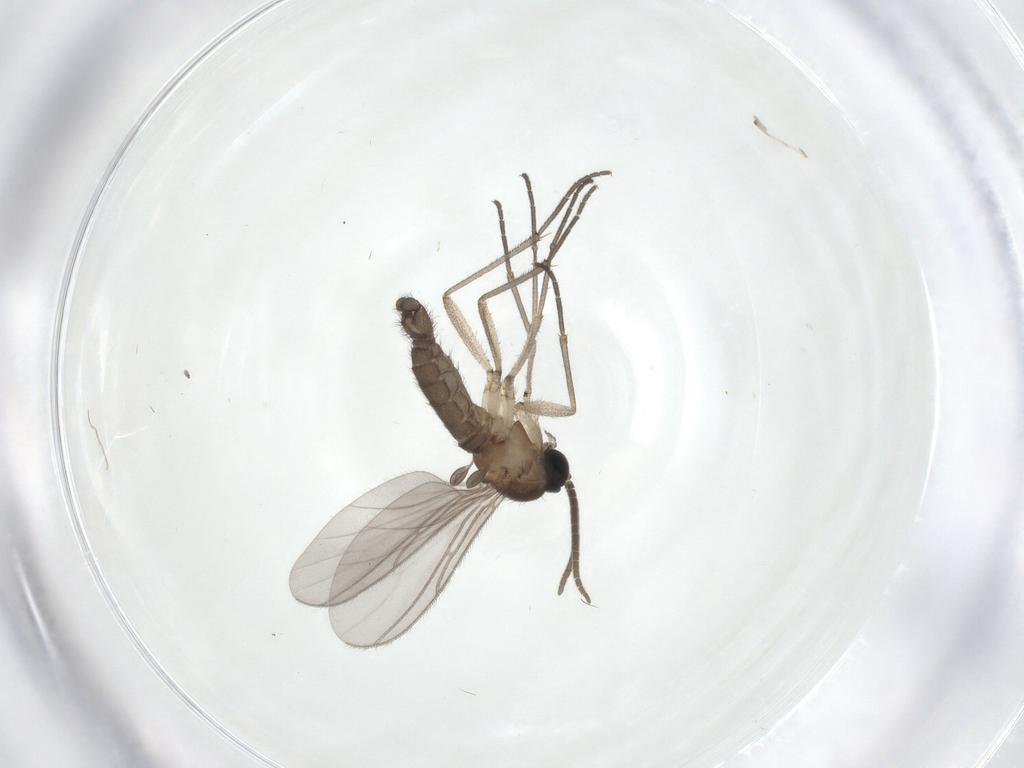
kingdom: Animalia
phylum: Arthropoda
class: Insecta
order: Diptera
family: Cecidomyiidae
